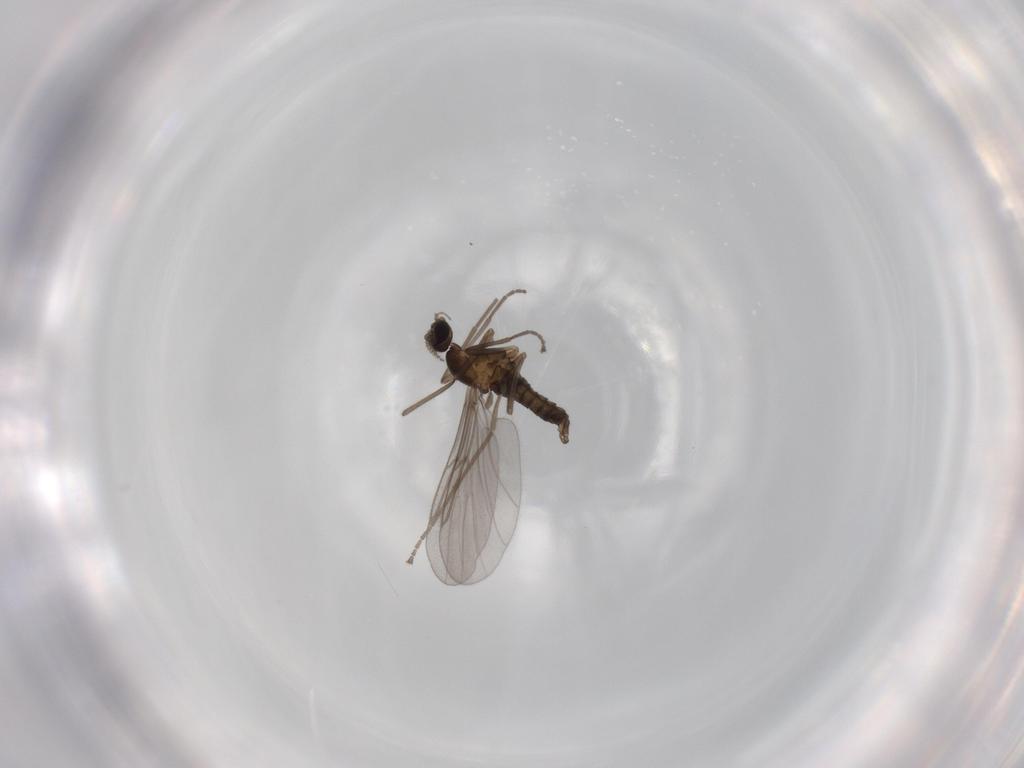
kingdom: Animalia
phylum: Arthropoda
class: Insecta
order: Diptera
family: Cecidomyiidae
